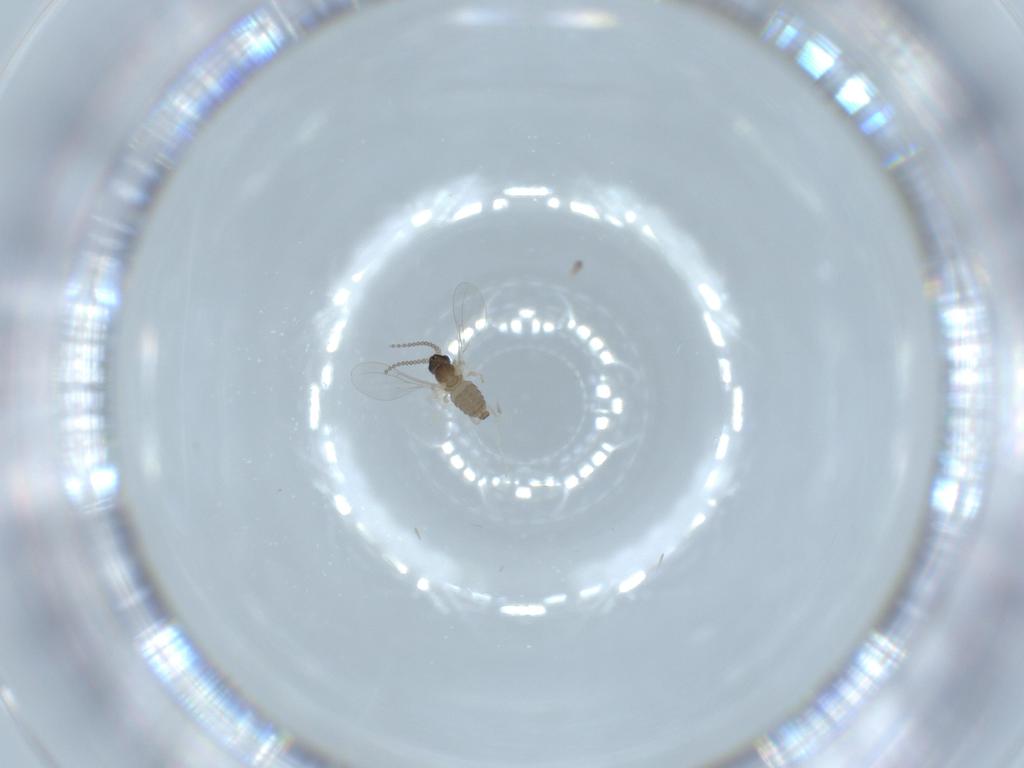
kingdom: Animalia
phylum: Arthropoda
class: Insecta
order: Diptera
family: Cecidomyiidae
